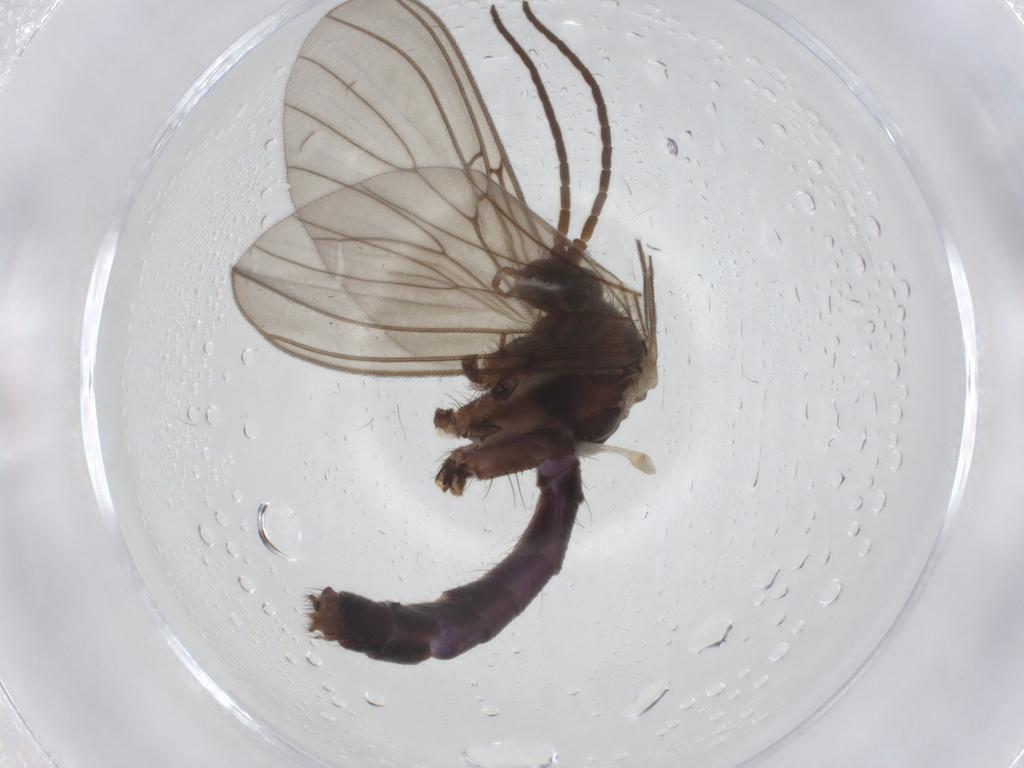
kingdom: Animalia
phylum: Arthropoda
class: Insecta
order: Diptera
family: Mycetophilidae
